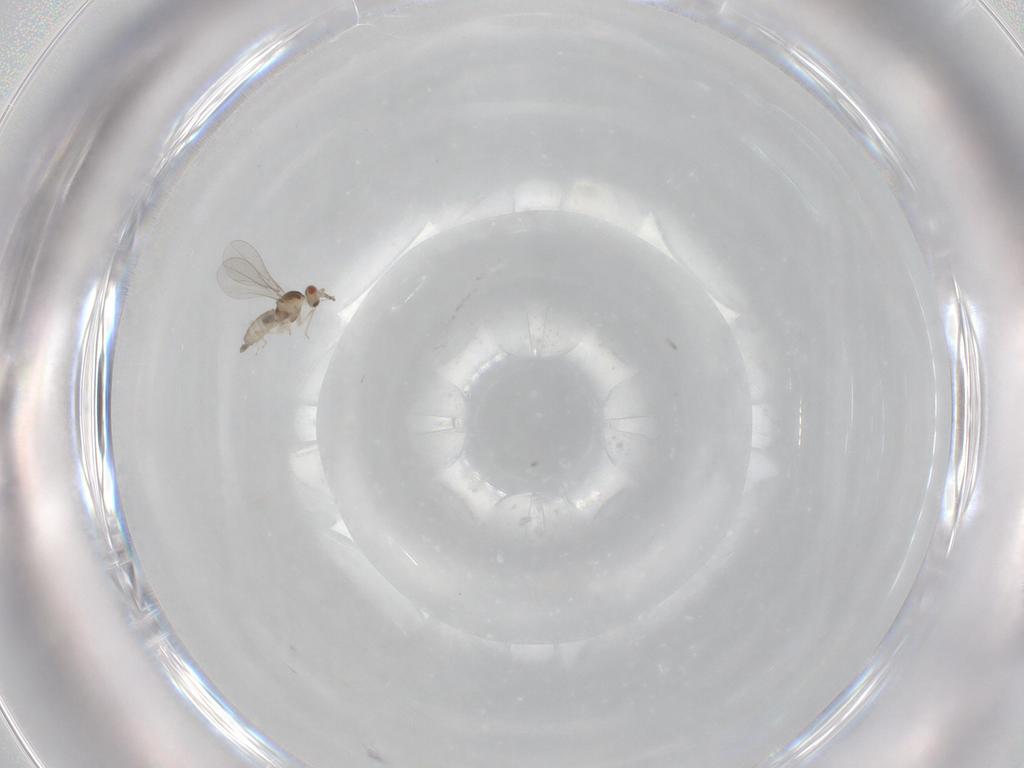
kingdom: Animalia
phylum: Arthropoda
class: Insecta
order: Diptera
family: Cecidomyiidae
